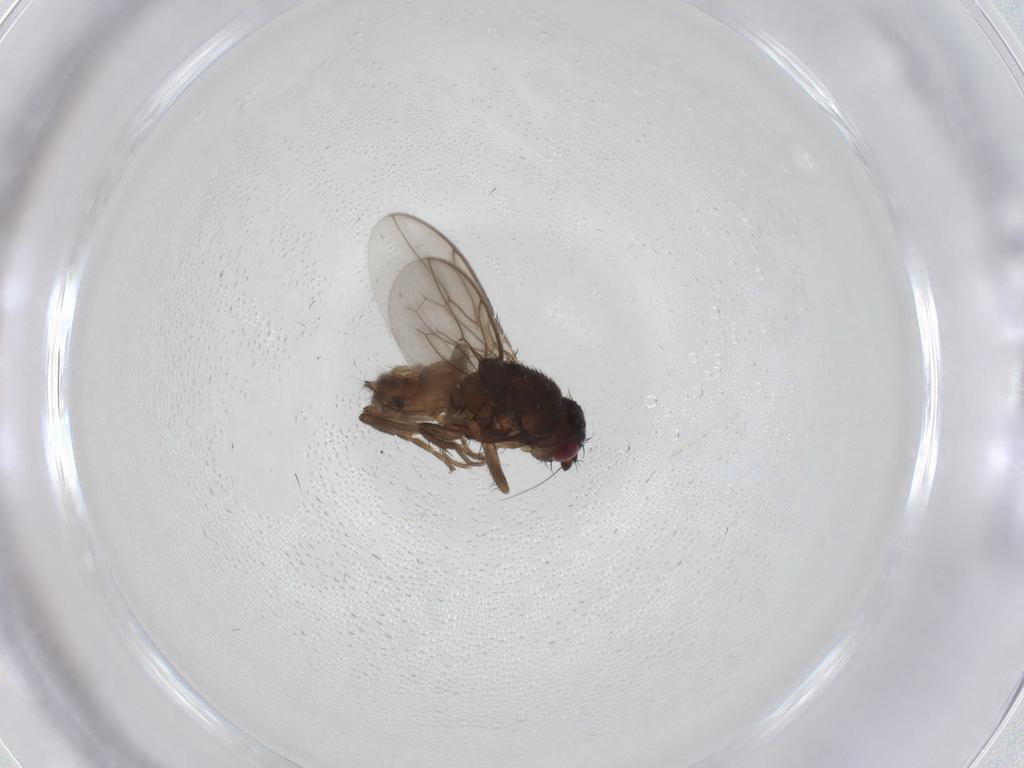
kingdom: Animalia
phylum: Arthropoda
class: Insecta
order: Diptera
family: Sphaeroceridae
